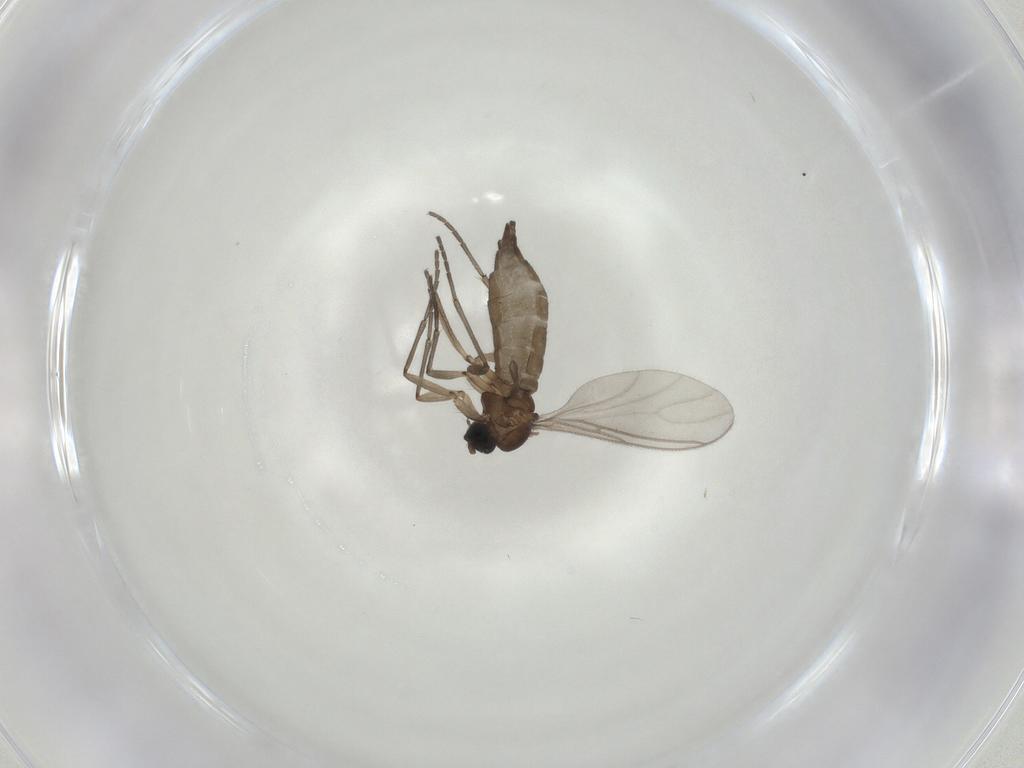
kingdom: Animalia
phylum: Arthropoda
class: Insecta
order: Diptera
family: Sciaridae
